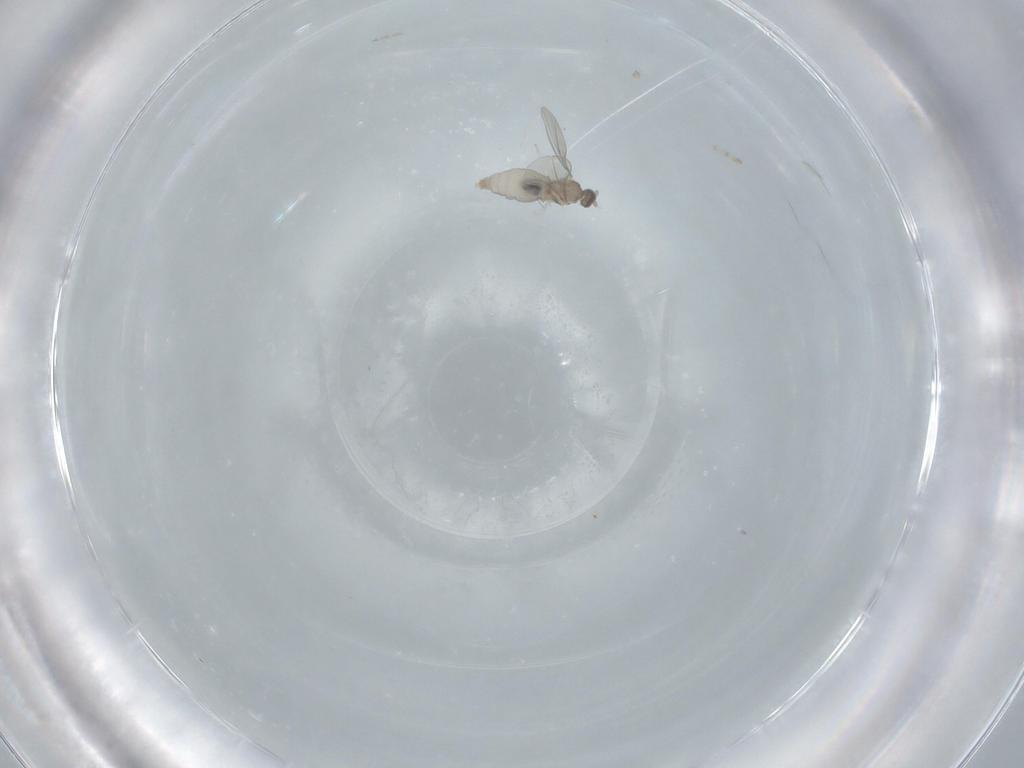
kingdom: Animalia
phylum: Arthropoda
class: Insecta
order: Diptera
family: Cecidomyiidae
